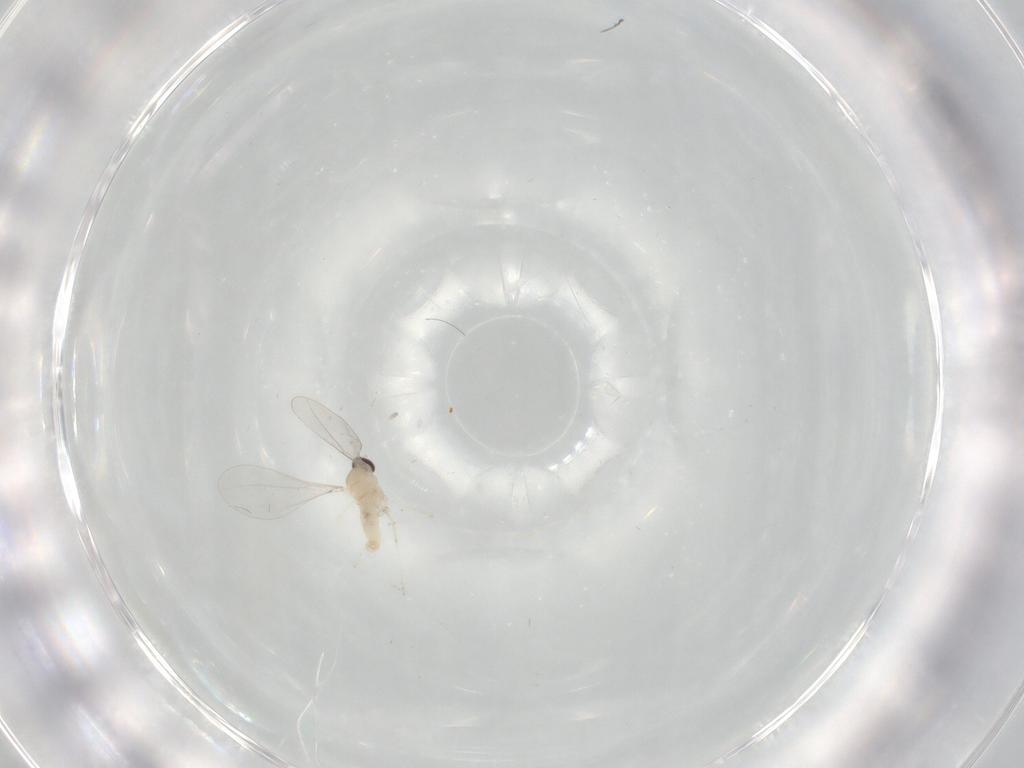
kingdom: Animalia
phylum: Arthropoda
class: Insecta
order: Diptera
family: Cecidomyiidae
